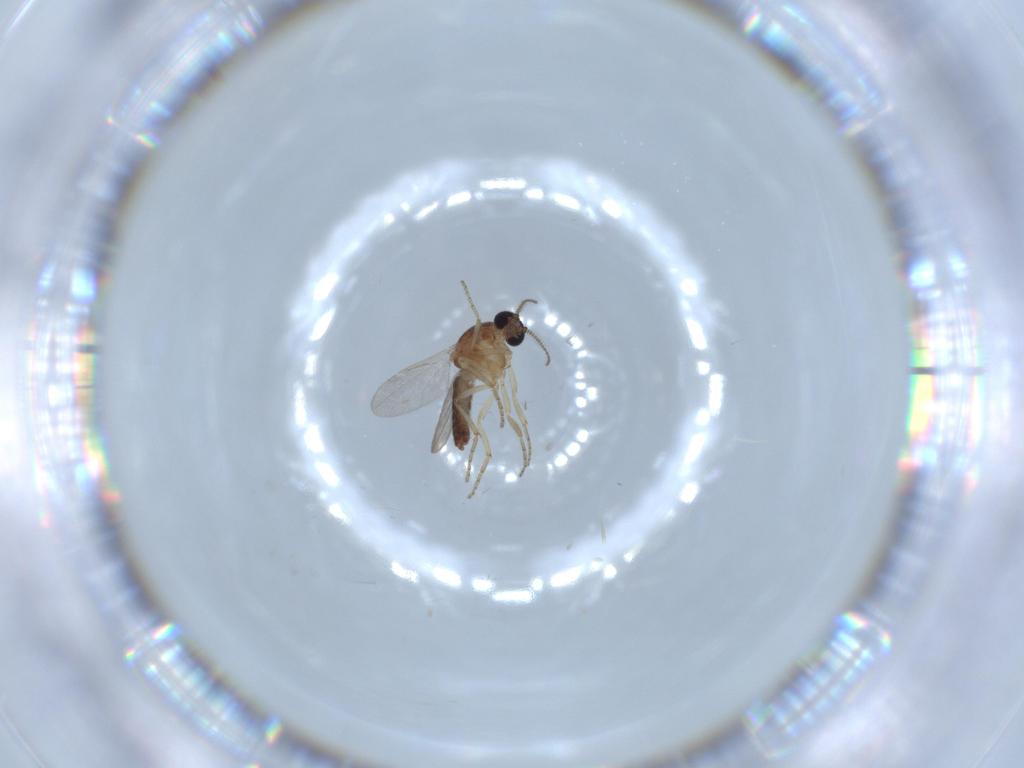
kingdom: Animalia
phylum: Arthropoda
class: Insecta
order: Diptera
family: Ceratopogonidae
